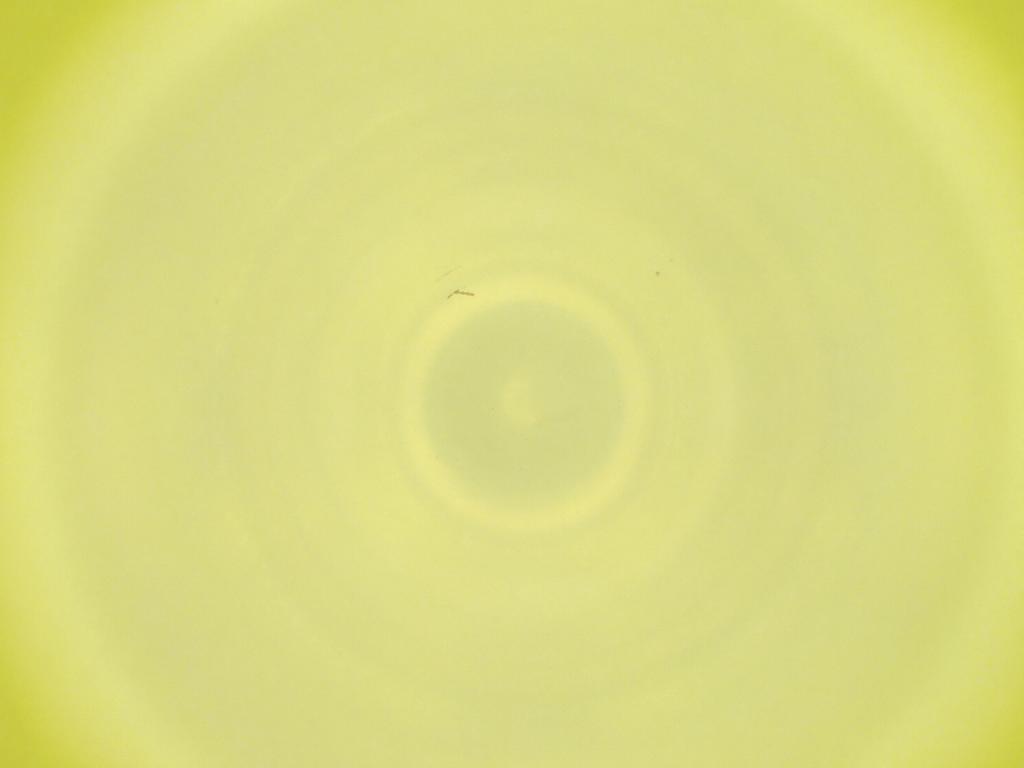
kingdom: Animalia
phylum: Arthropoda
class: Insecta
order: Diptera
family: Cecidomyiidae
